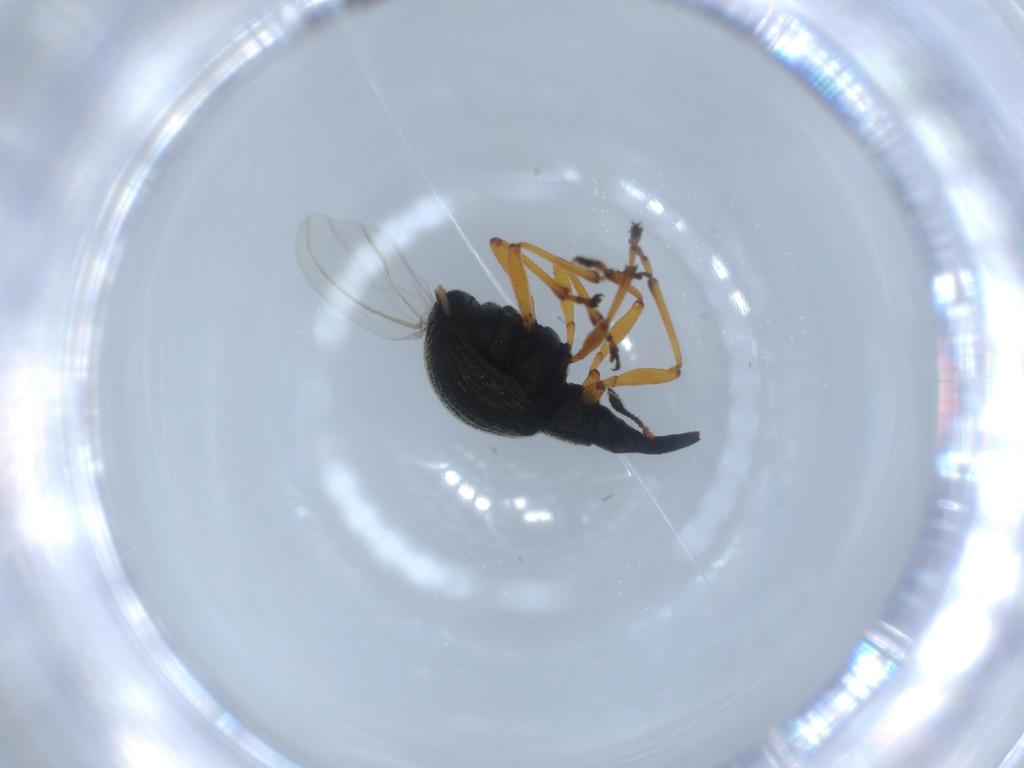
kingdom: Animalia
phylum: Arthropoda
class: Insecta
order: Coleoptera
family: Brentidae
